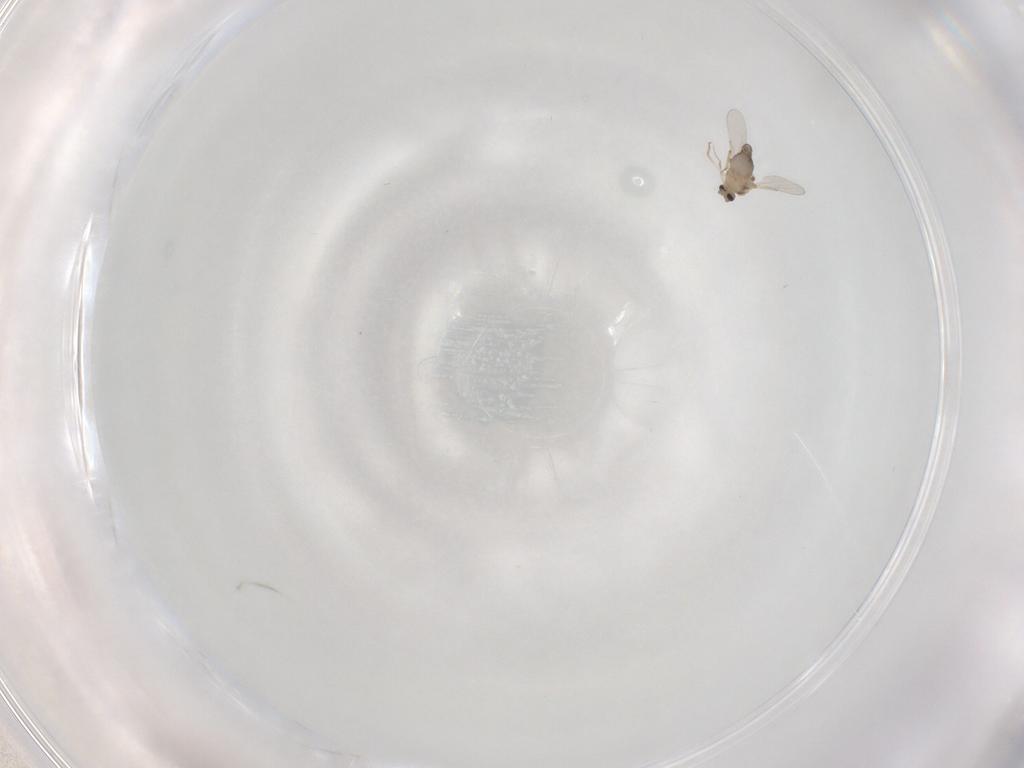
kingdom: Animalia
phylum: Arthropoda
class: Insecta
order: Diptera
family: Ceratopogonidae
